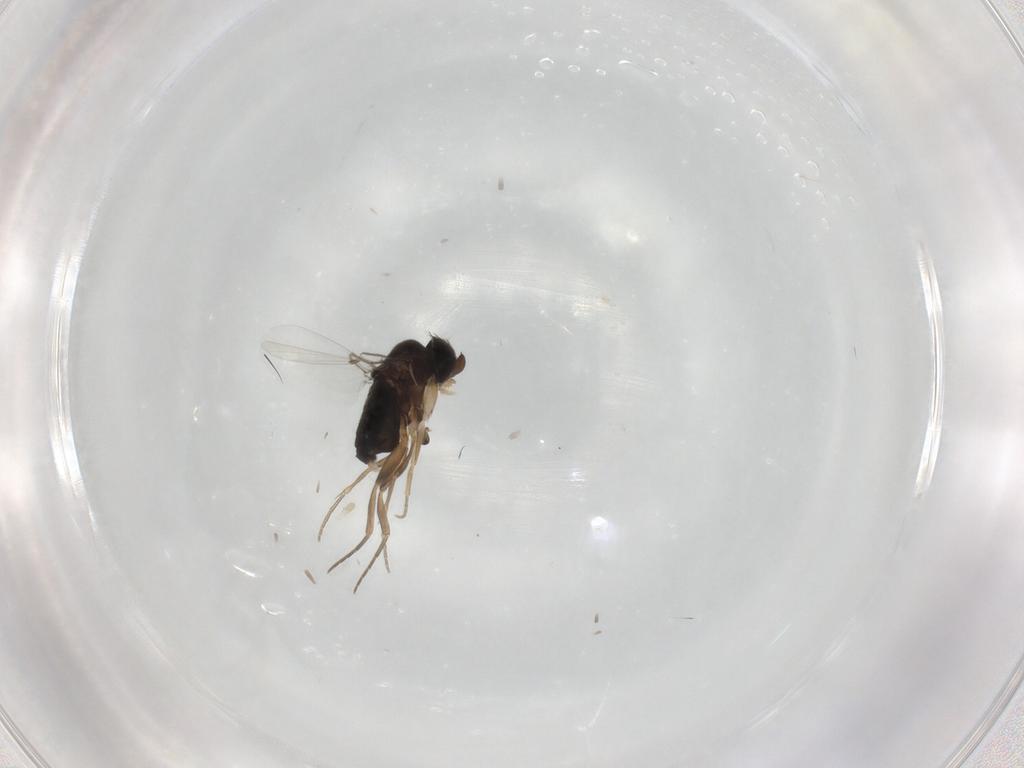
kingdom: Animalia
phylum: Arthropoda
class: Insecta
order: Diptera
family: Phoridae
